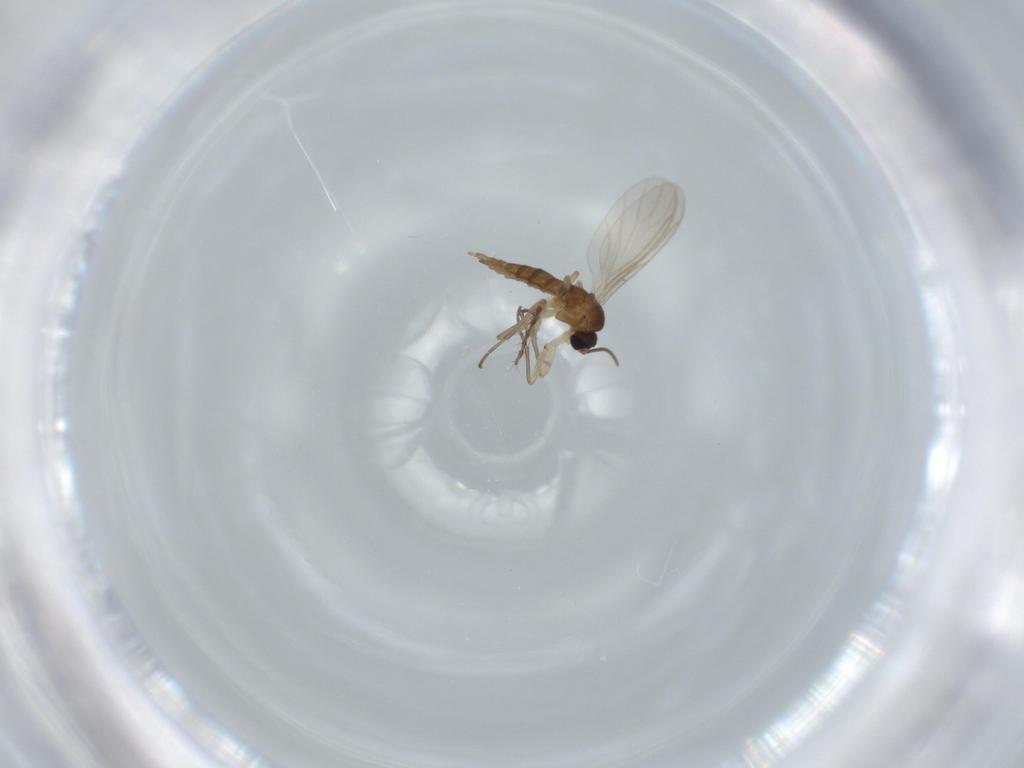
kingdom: Animalia
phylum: Arthropoda
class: Insecta
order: Diptera
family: Sciaridae
